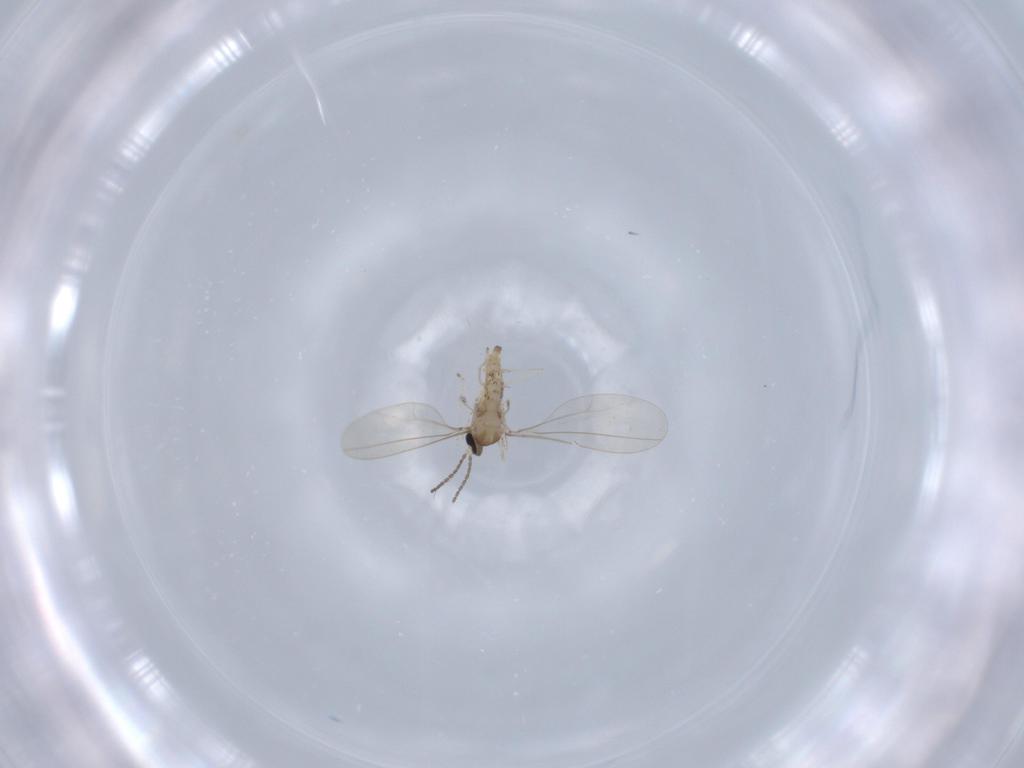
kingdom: Animalia
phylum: Arthropoda
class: Insecta
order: Diptera
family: Cecidomyiidae
